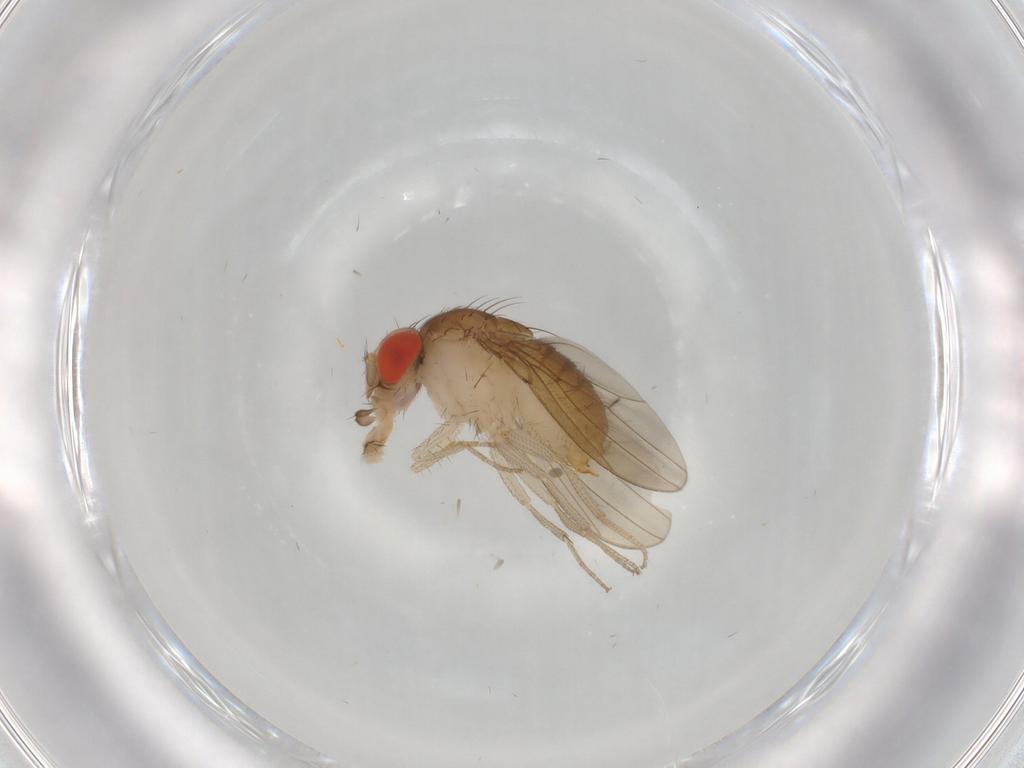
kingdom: Animalia
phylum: Arthropoda
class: Insecta
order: Diptera
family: Drosophilidae
